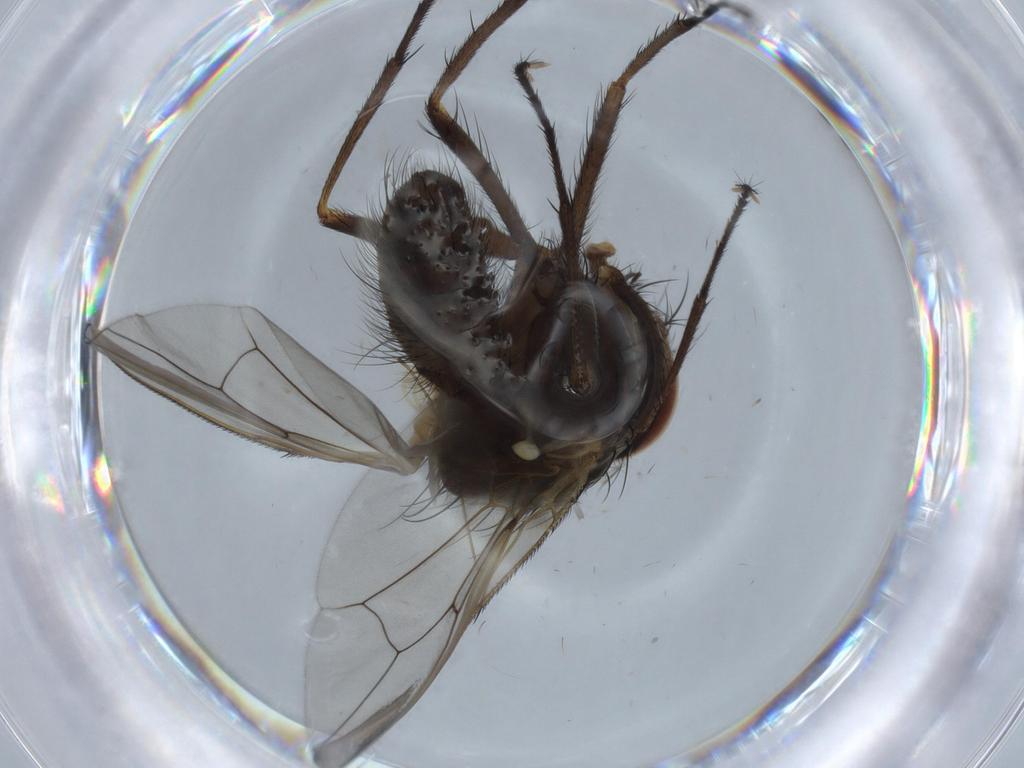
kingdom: Animalia
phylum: Arthropoda
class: Insecta
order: Diptera
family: Anthomyiidae
